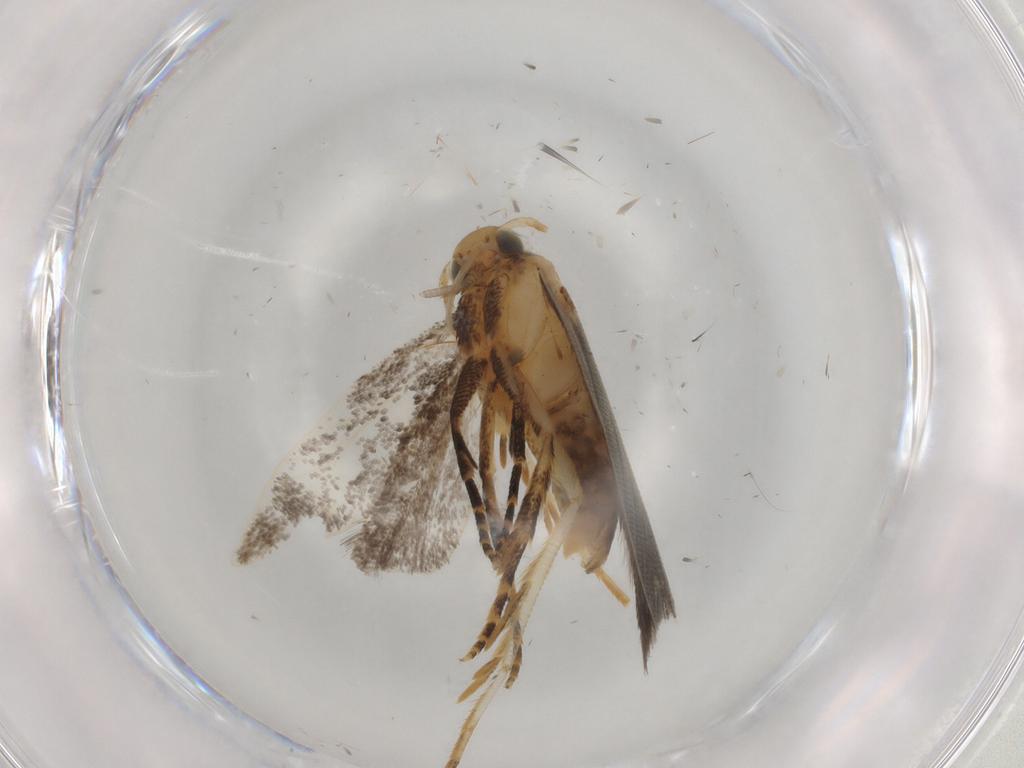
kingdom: Animalia
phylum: Arthropoda
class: Insecta
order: Lepidoptera
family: Gelechiidae
